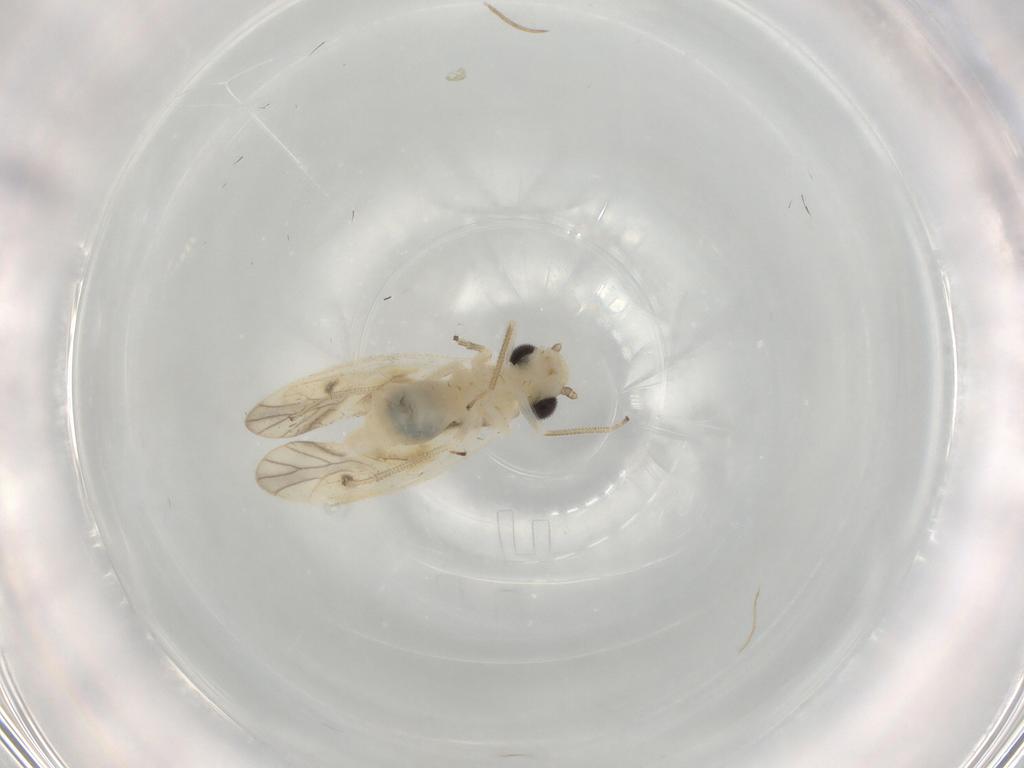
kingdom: Animalia
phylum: Arthropoda
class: Insecta
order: Psocodea
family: Caeciliusidae
